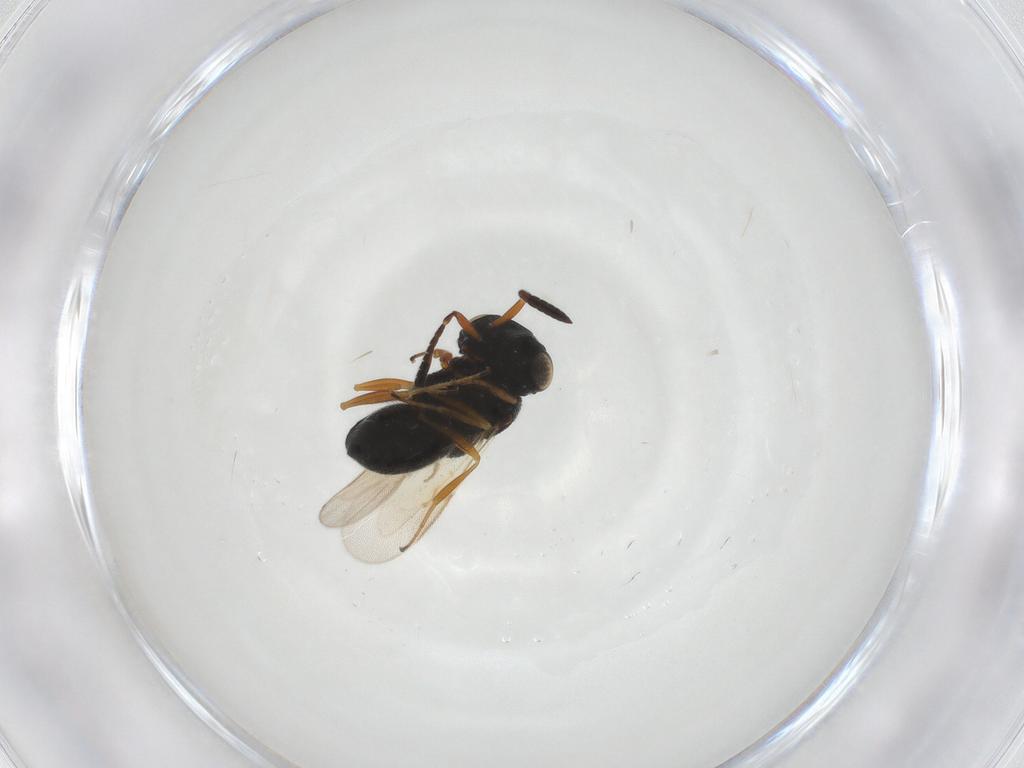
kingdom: Animalia
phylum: Arthropoda
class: Insecta
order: Hymenoptera
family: Scelionidae
